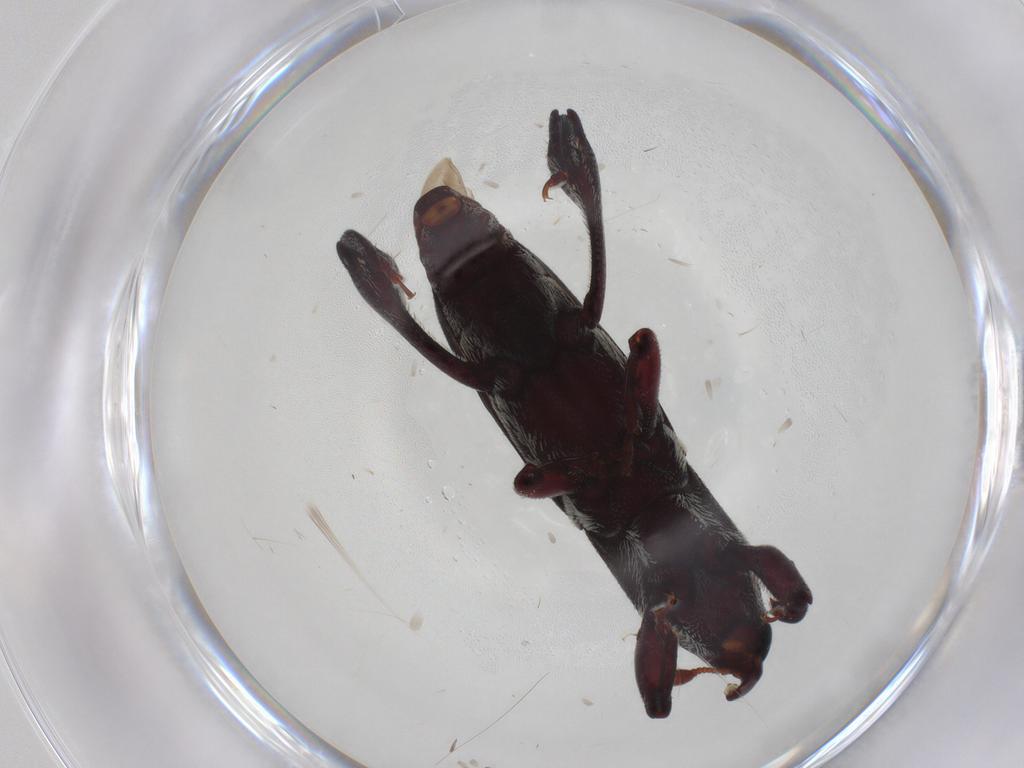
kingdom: Animalia
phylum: Arthropoda
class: Insecta
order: Coleoptera
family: Curculionidae
